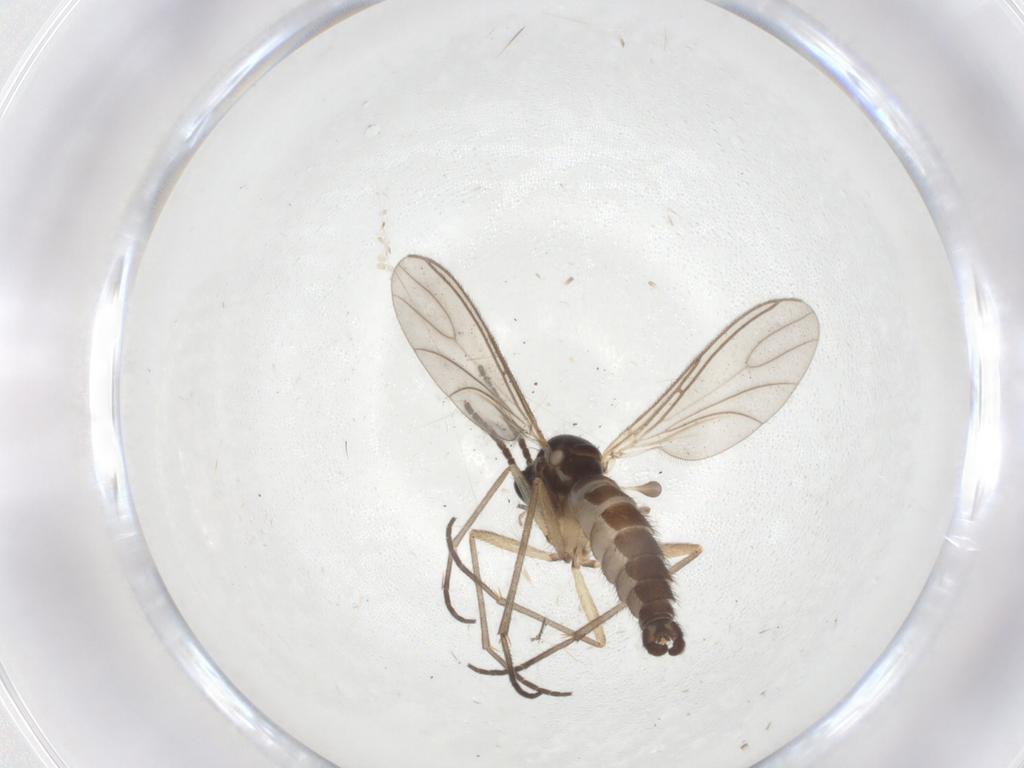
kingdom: Animalia
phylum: Arthropoda
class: Insecta
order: Diptera
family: Sciaridae
